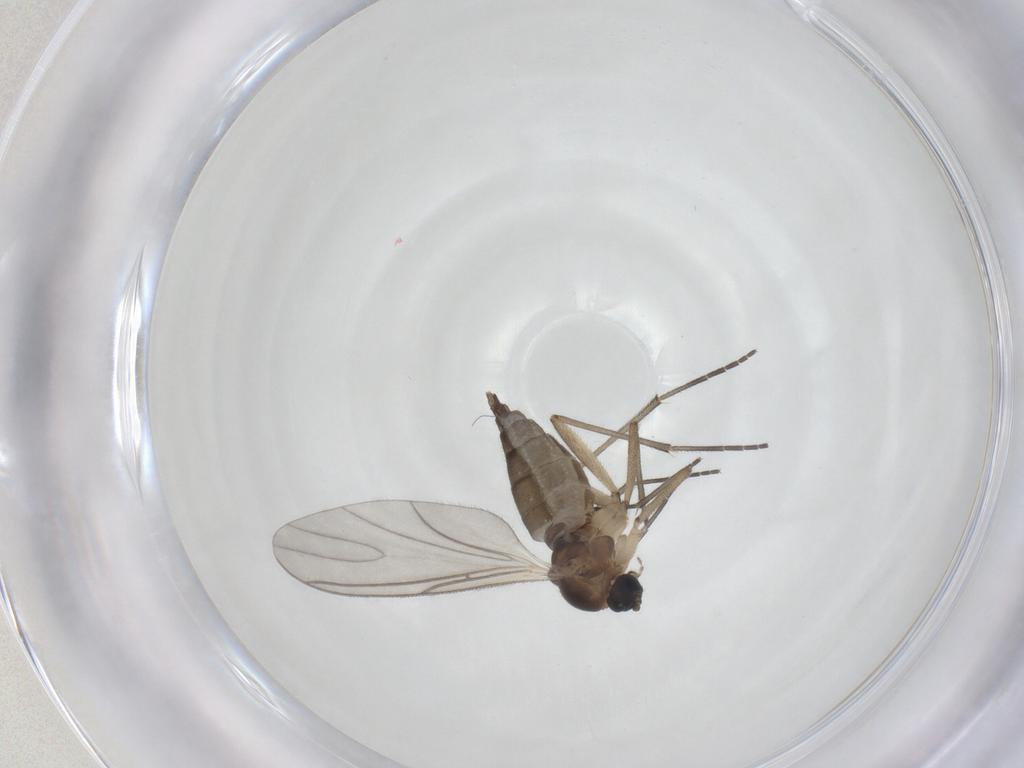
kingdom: Animalia
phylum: Arthropoda
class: Insecta
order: Diptera
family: Sciaridae
